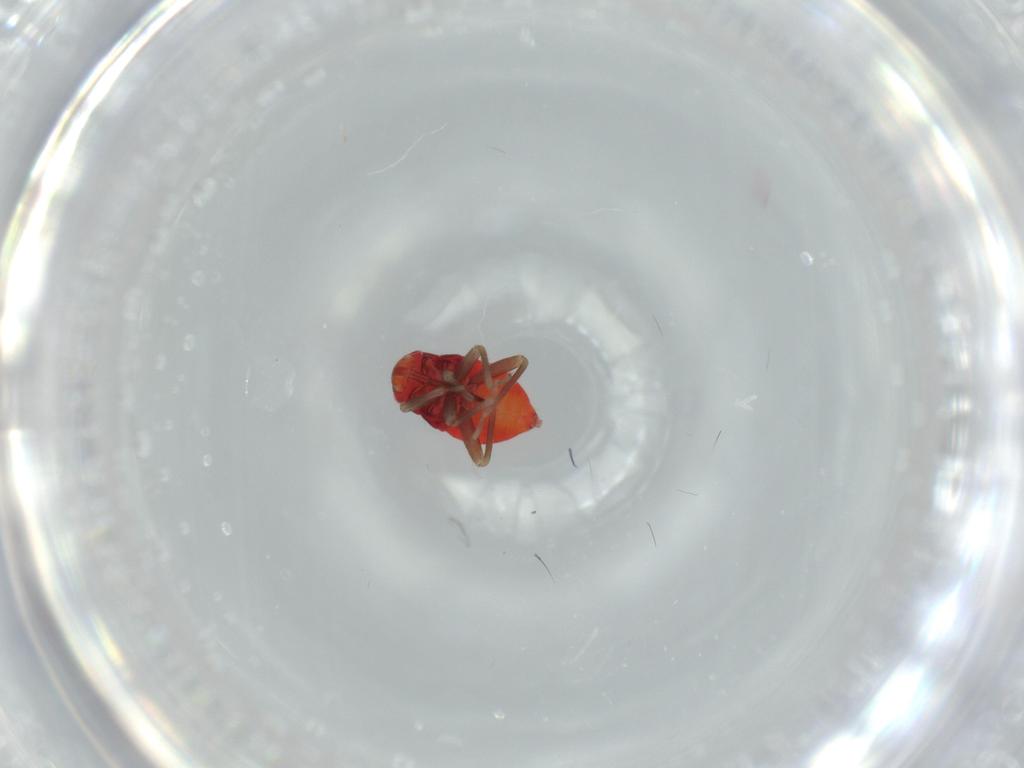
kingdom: Animalia
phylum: Arthropoda
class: Insecta
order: Hemiptera
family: Miridae
